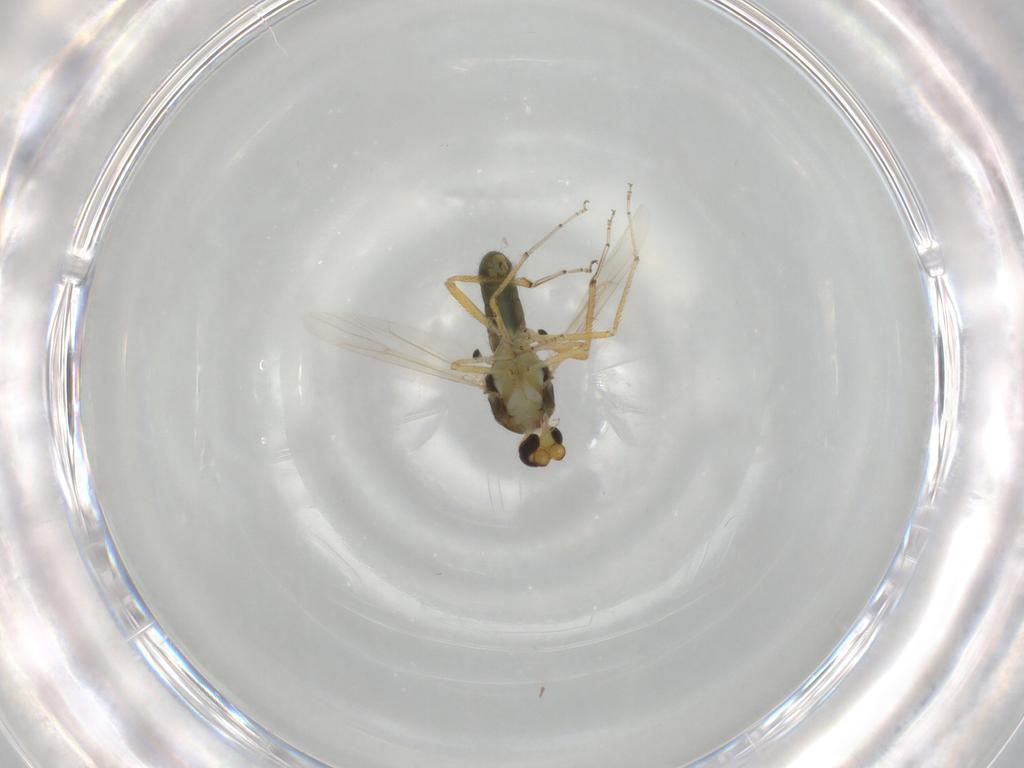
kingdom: Animalia
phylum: Arthropoda
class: Insecta
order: Diptera
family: Ceratopogonidae
